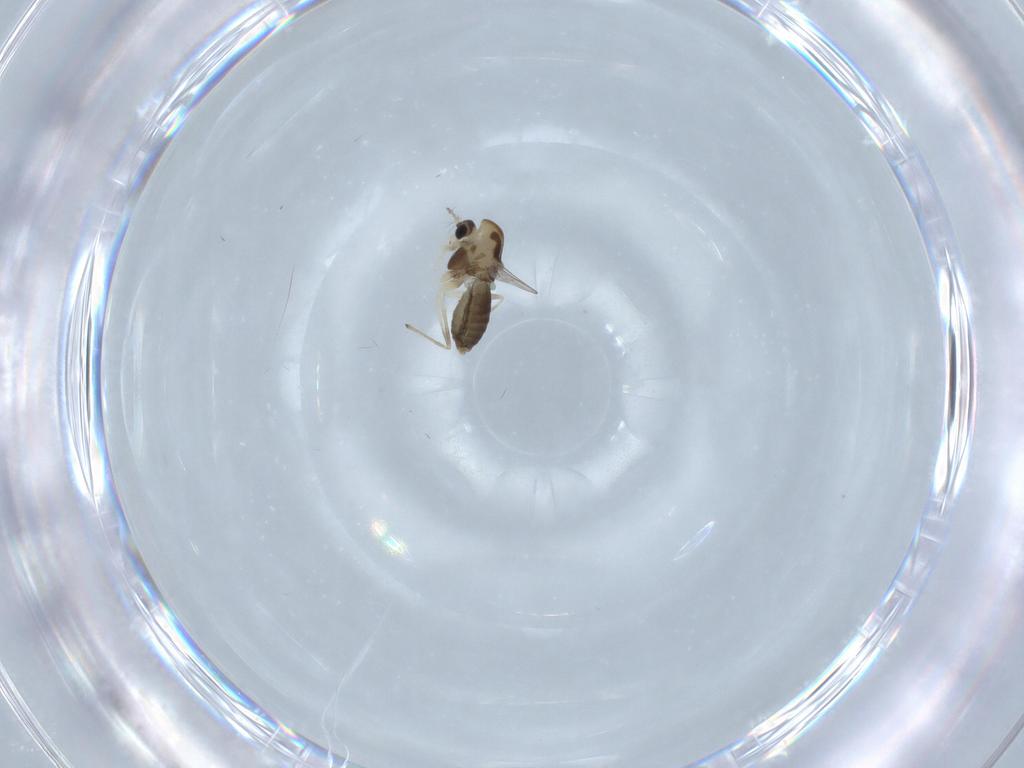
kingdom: Animalia
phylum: Arthropoda
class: Insecta
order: Diptera
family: Chironomidae
